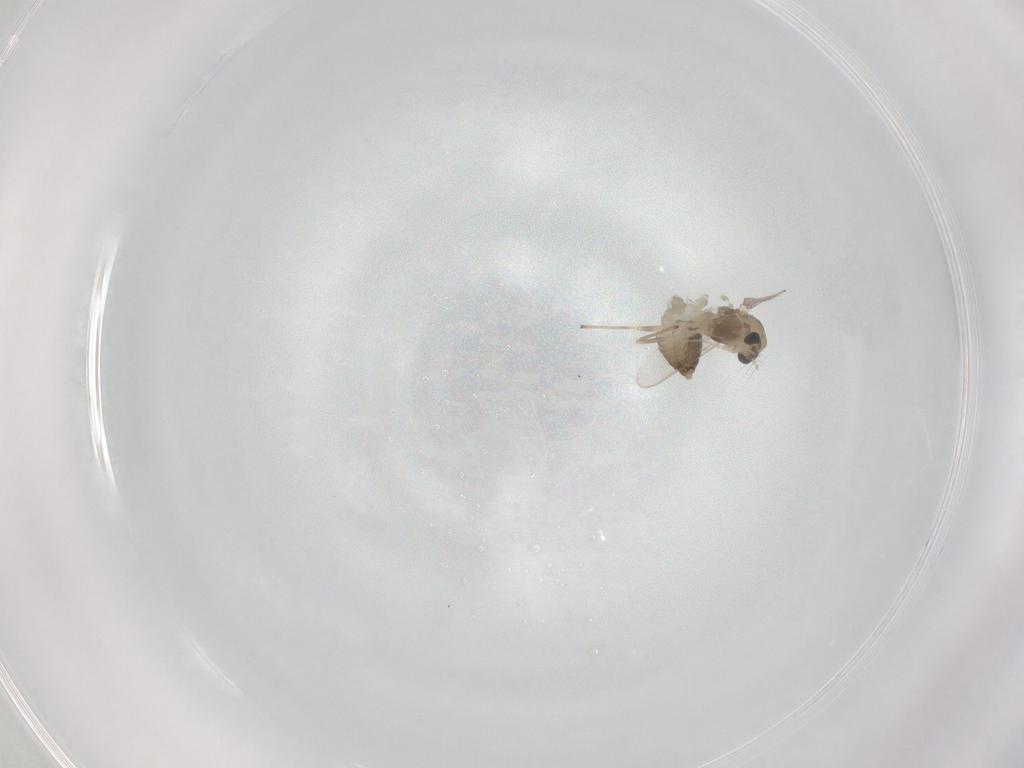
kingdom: Animalia
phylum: Arthropoda
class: Insecta
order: Diptera
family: Chironomidae
